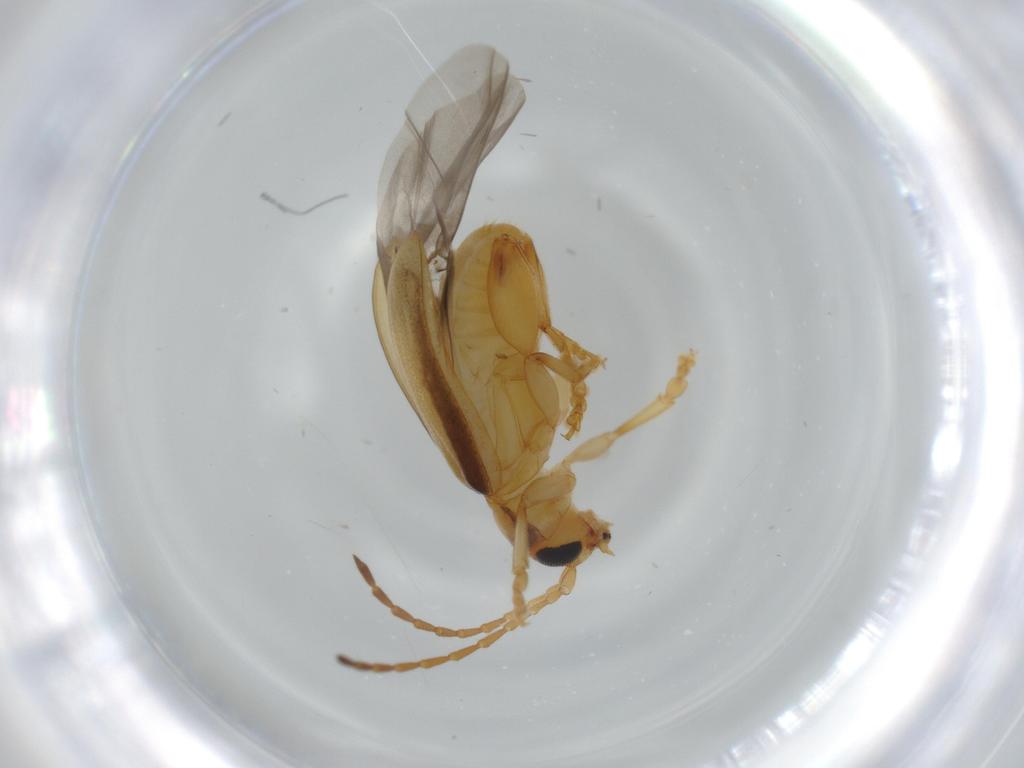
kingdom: Animalia
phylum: Arthropoda
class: Insecta
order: Coleoptera
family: Chrysomelidae
